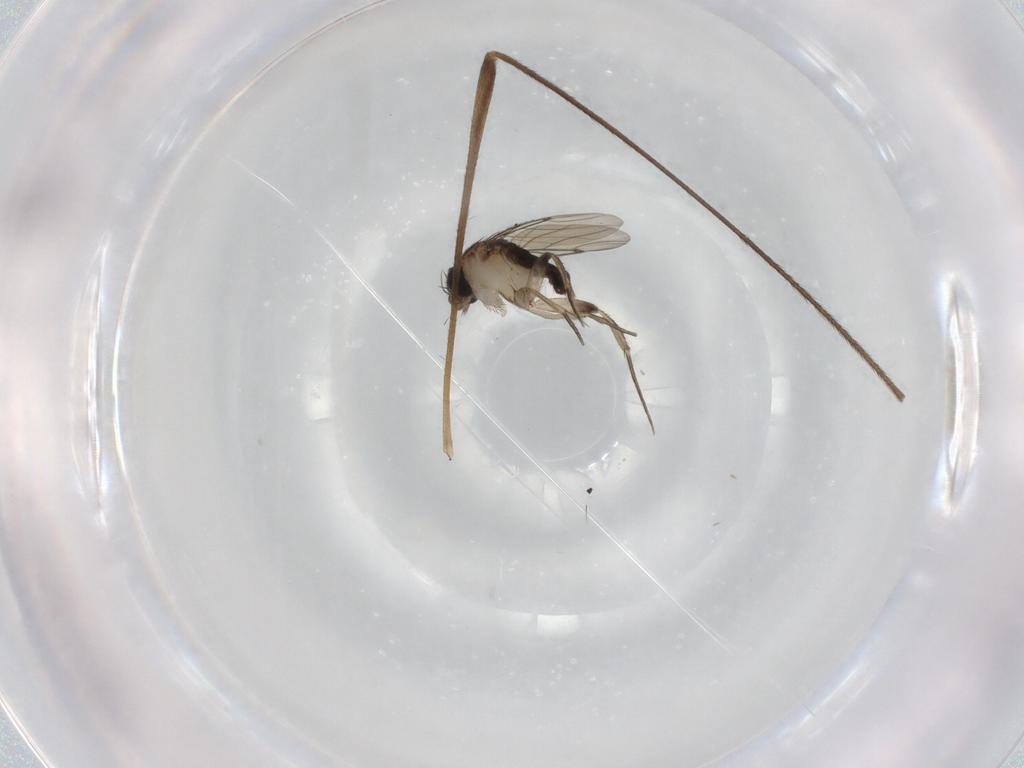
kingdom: Animalia
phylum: Arthropoda
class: Insecta
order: Diptera
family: Limoniidae
